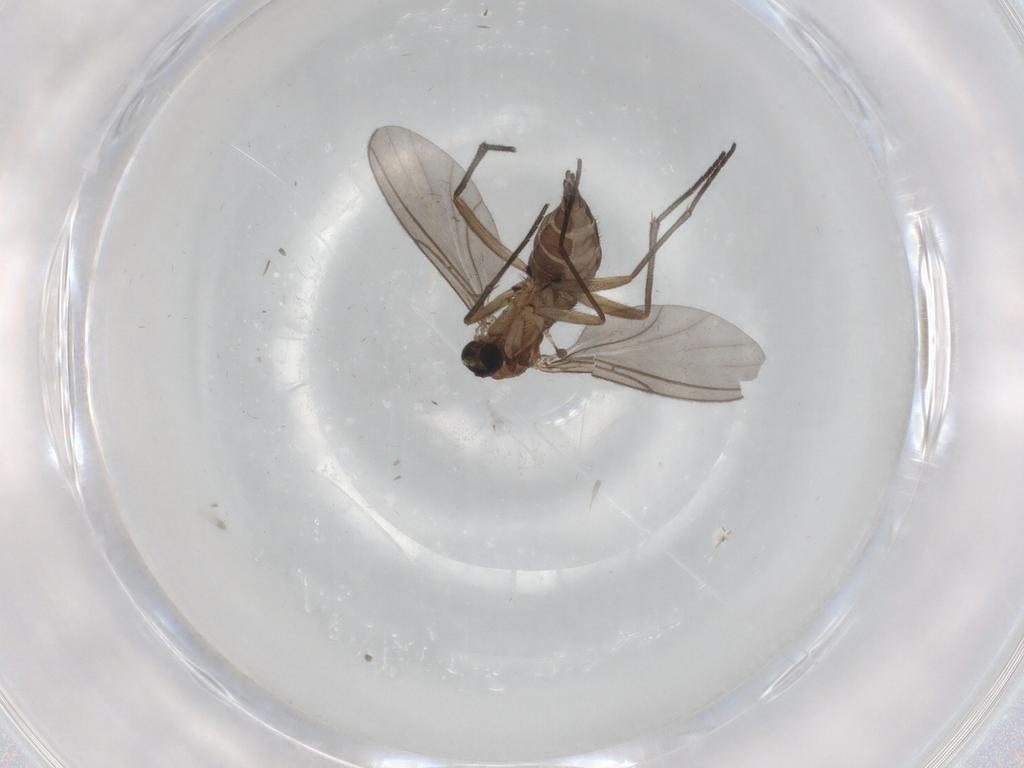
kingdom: Animalia
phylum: Arthropoda
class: Insecta
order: Diptera
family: Sciaridae
